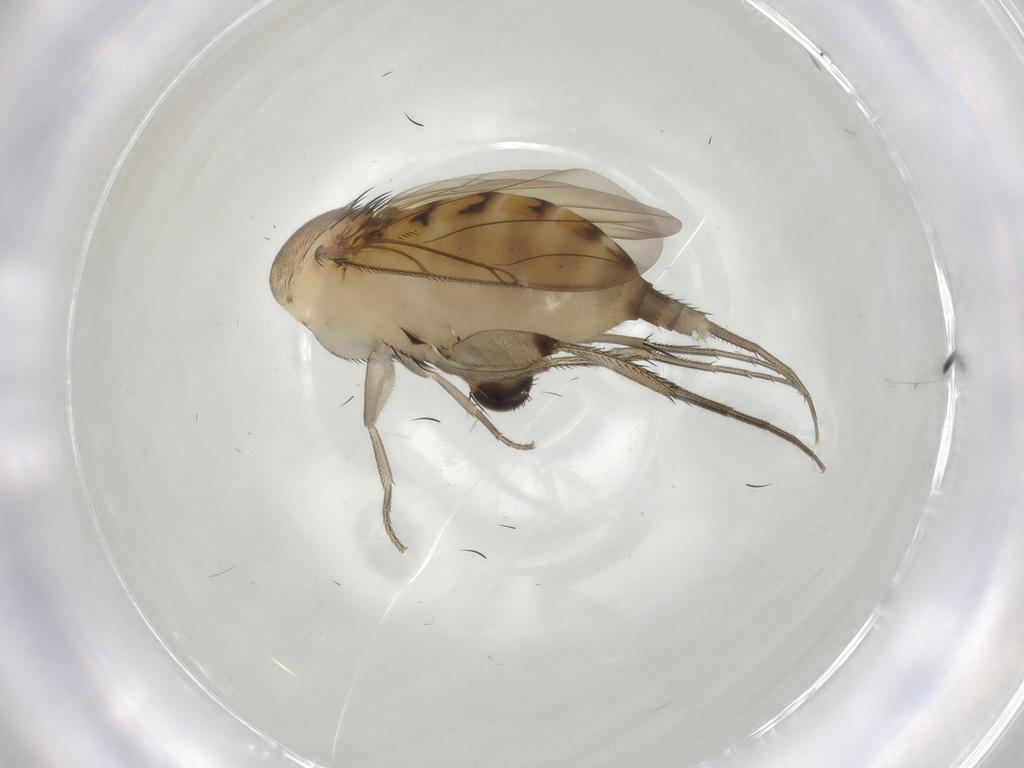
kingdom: Animalia
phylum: Arthropoda
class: Insecta
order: Diptera
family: Phoridae
